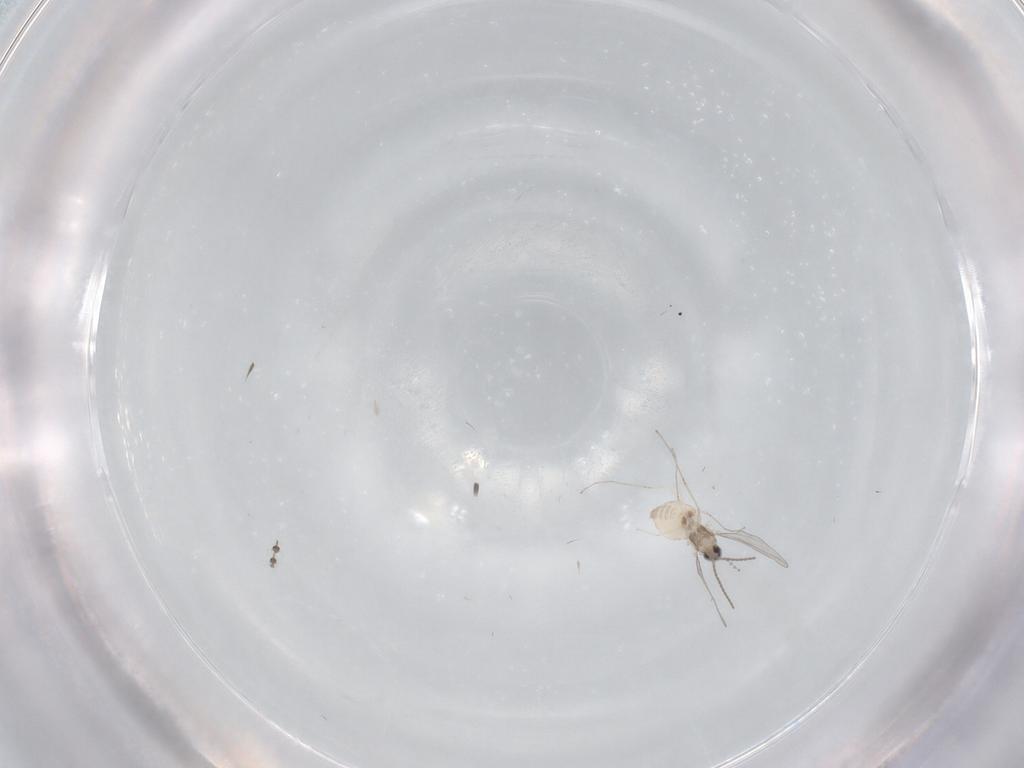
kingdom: Animalia
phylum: Arthropoda
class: Insecta
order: Diptera
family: Cecidomyiidae
